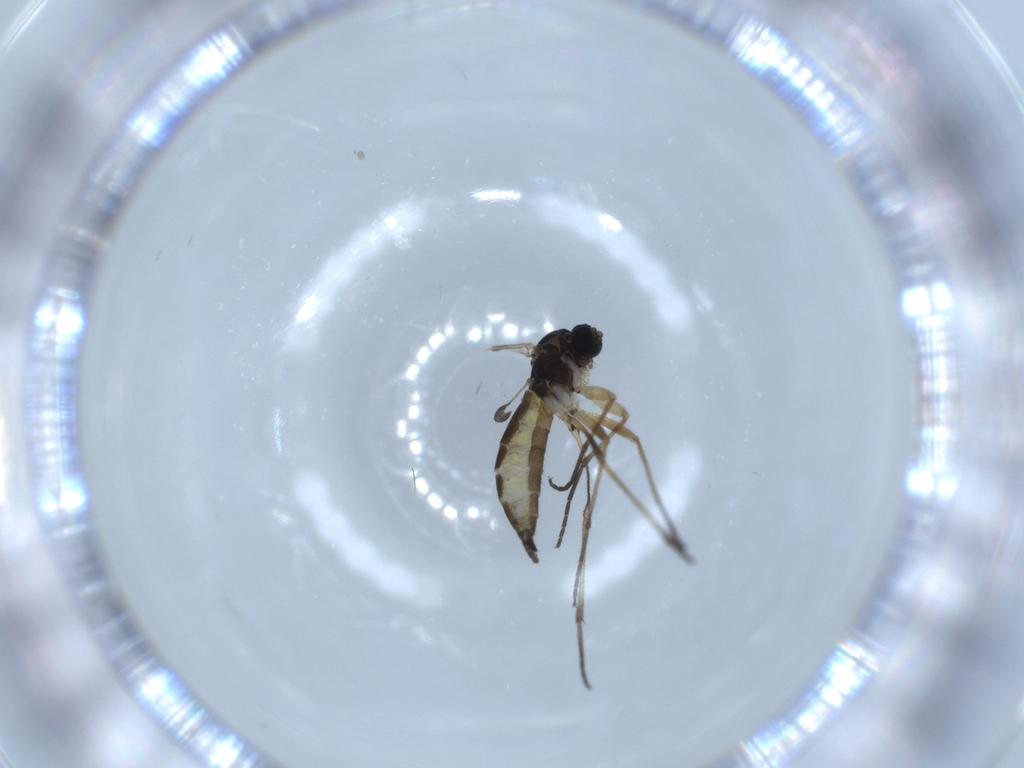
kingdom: Animalia
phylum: Arthropoda
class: Insecta
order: Diptera
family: Sciaridae
